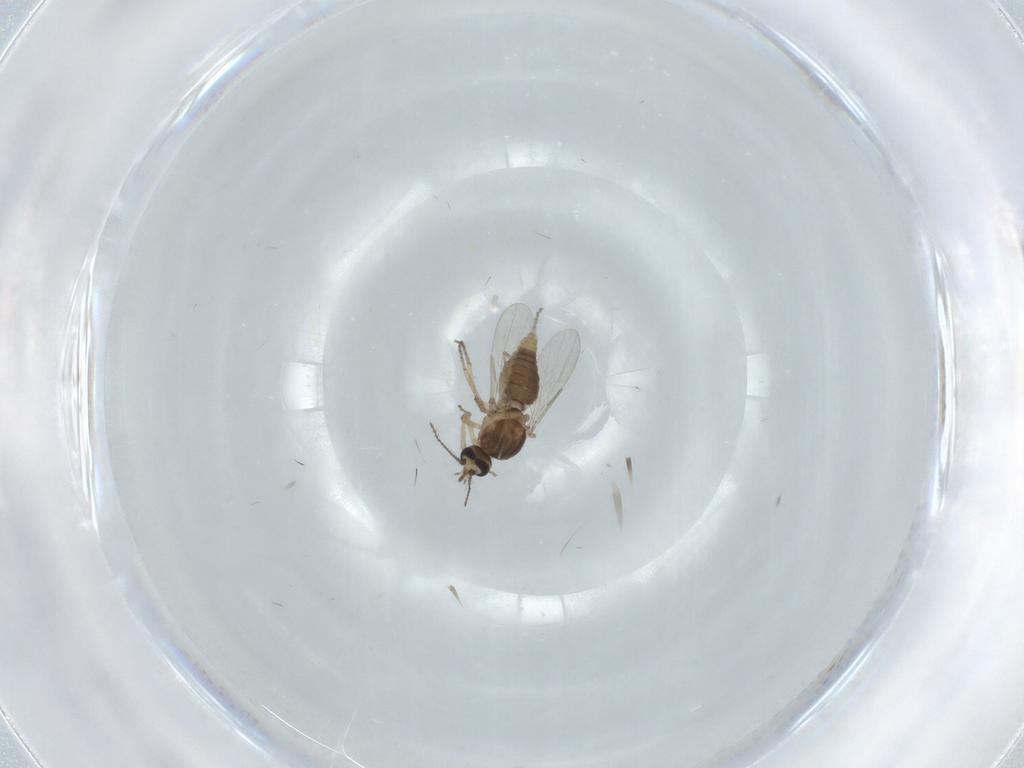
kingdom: Animalia
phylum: Arthropoda
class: Insecta
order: Diptera
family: Ceratopogonidae
